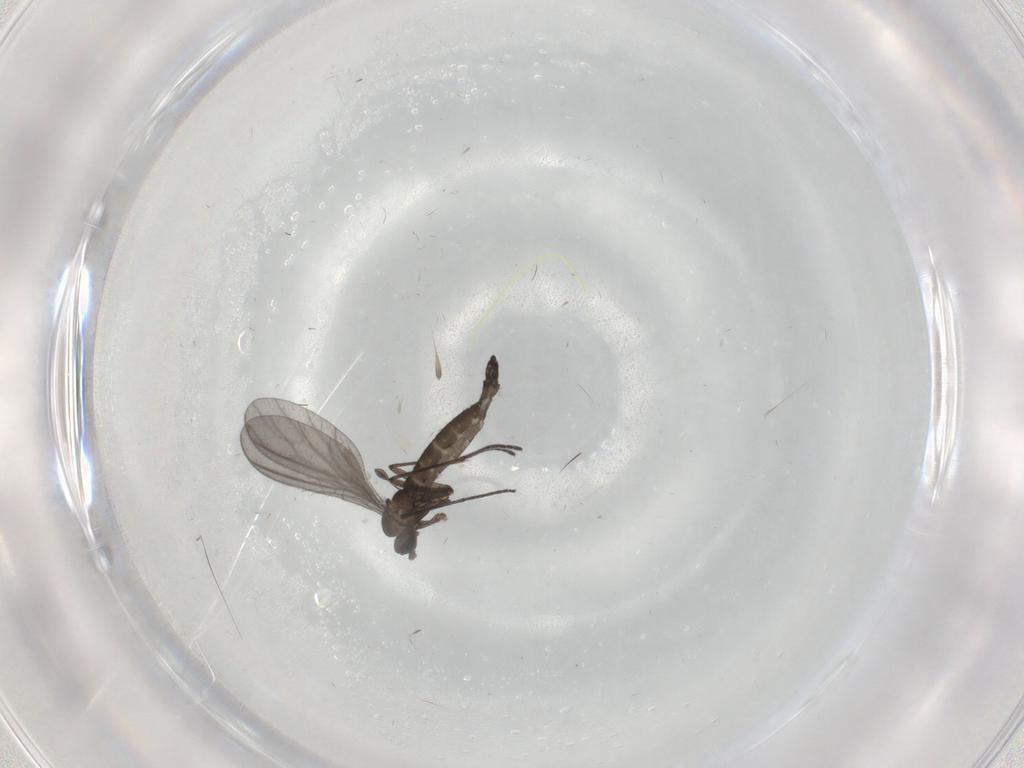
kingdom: Animalia
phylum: Arthropoda
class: Insecta
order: Diptera
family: Sciaridae
